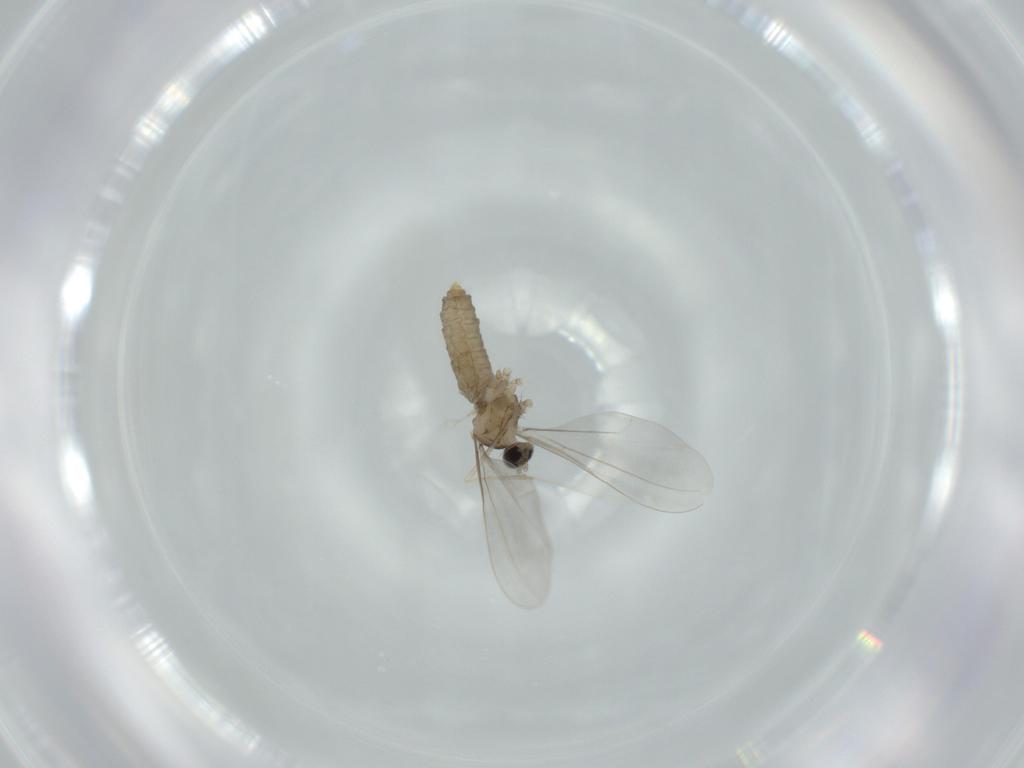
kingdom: Animalia
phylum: Arthropoda
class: Insecta
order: Diptera
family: Cecidomyiidae
